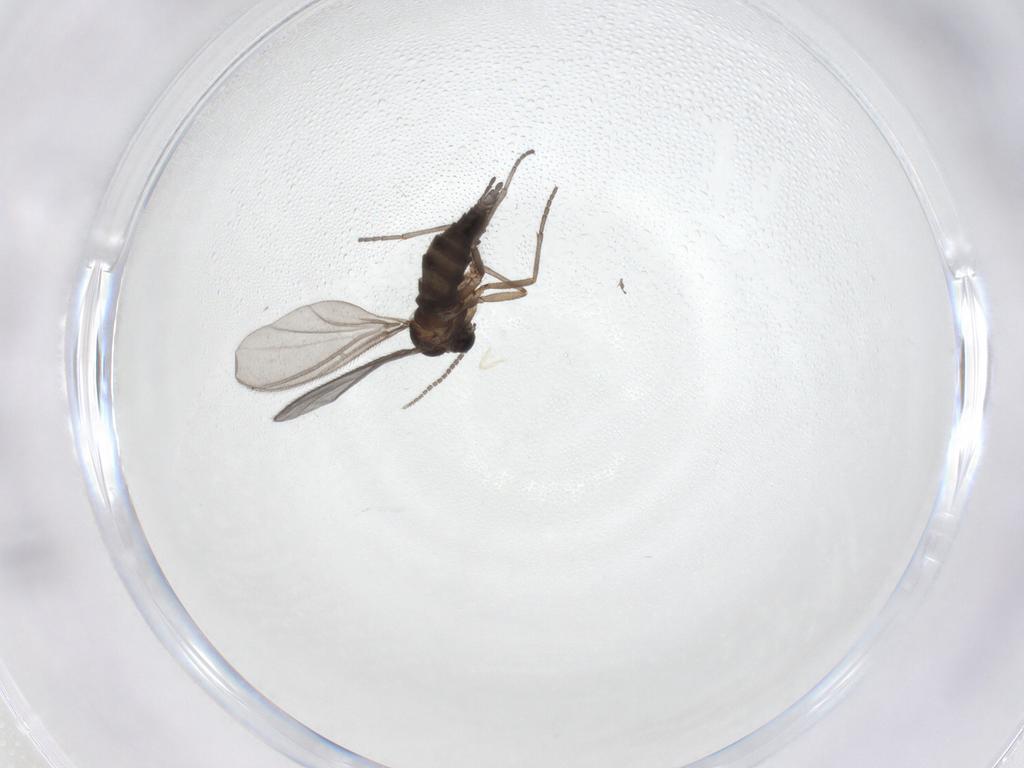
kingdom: Animalia
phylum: Arthropoda
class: Insecta
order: Diptera
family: Sciaridae
